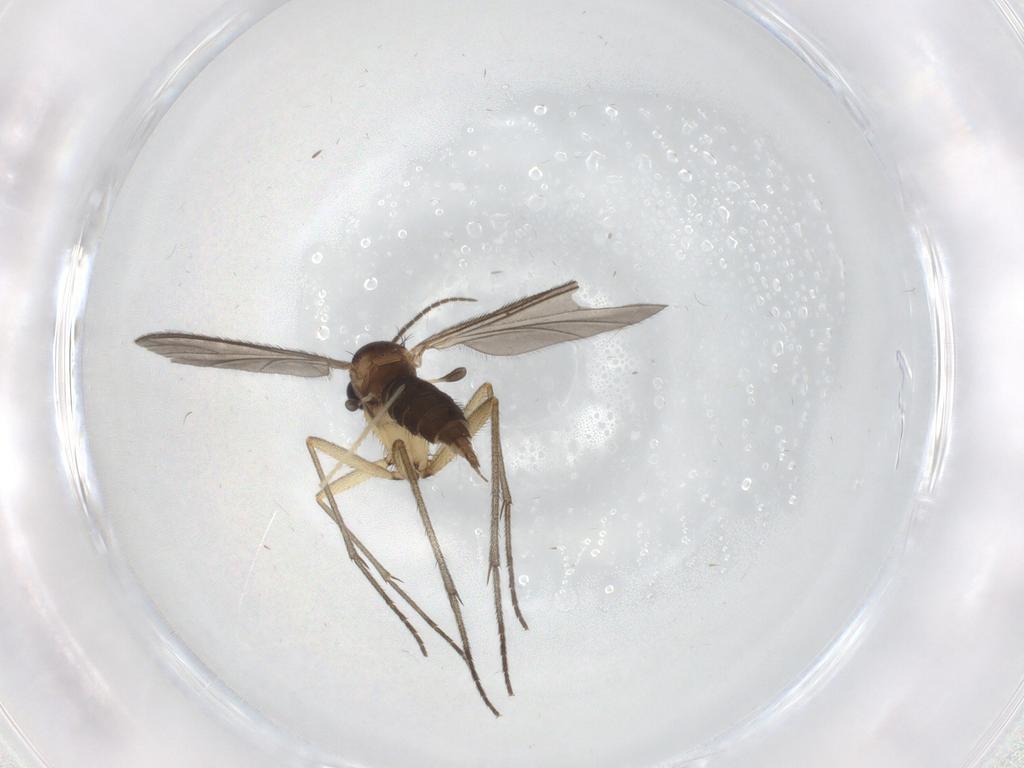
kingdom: Animalia
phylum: Arthropoda
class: Insecta
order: Diptera
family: Sciaridae
